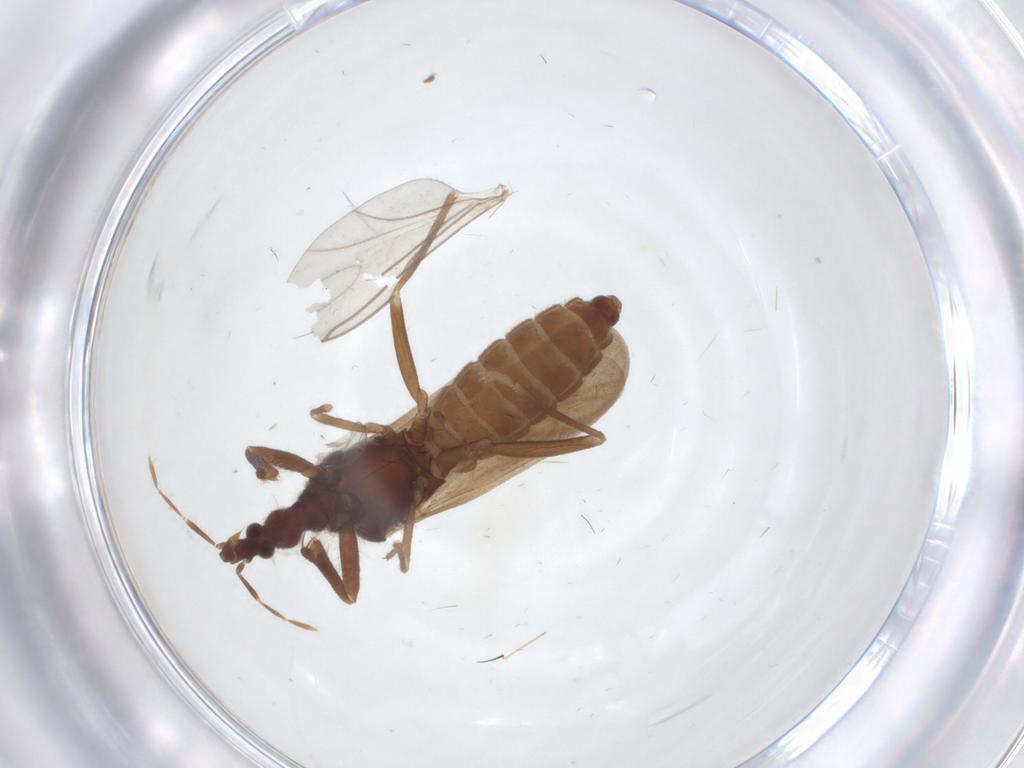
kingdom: Animalia
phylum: Arthropoda
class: Insecta
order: Hemiptera
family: Enicocephalidae
